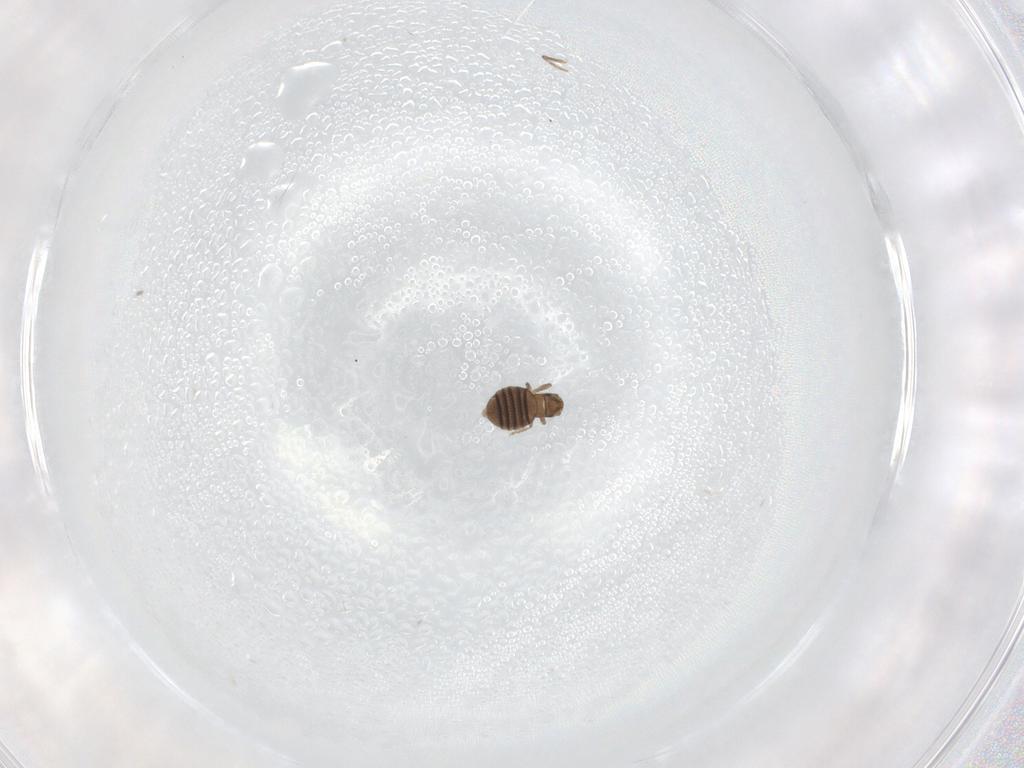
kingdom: Animalia
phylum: Arthropoda
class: Insecta
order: Diptera
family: Phoridae
